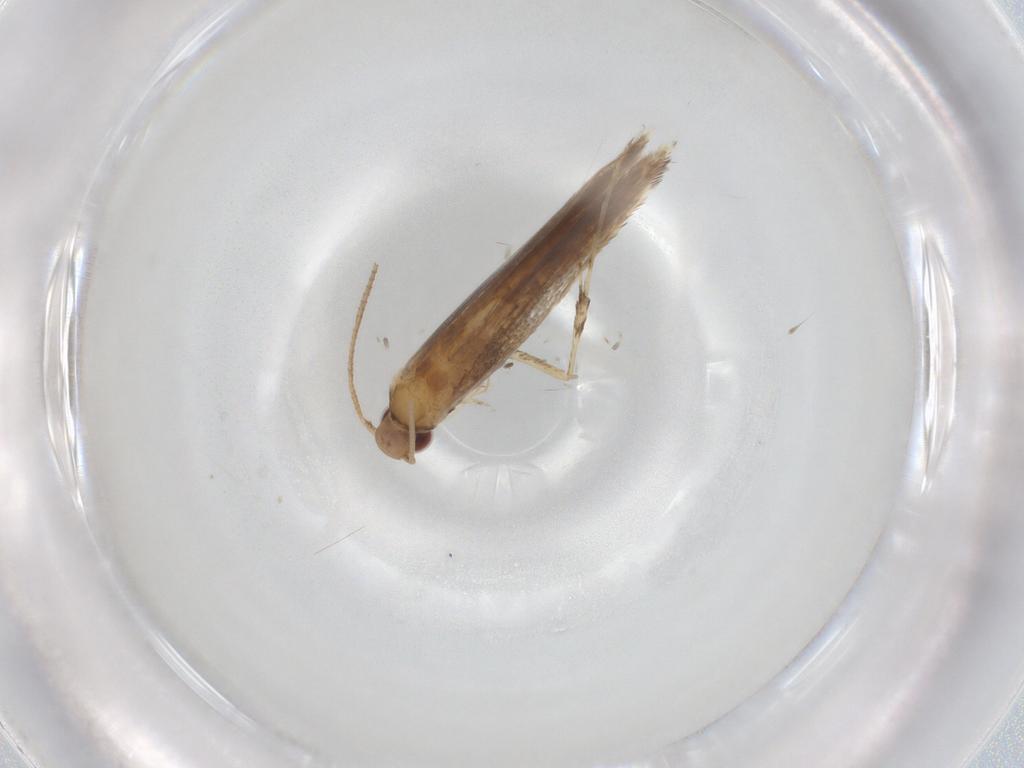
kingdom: Animalia
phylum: Arthropoda
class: Insecta
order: Lepidoptera
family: Gracillariidae
